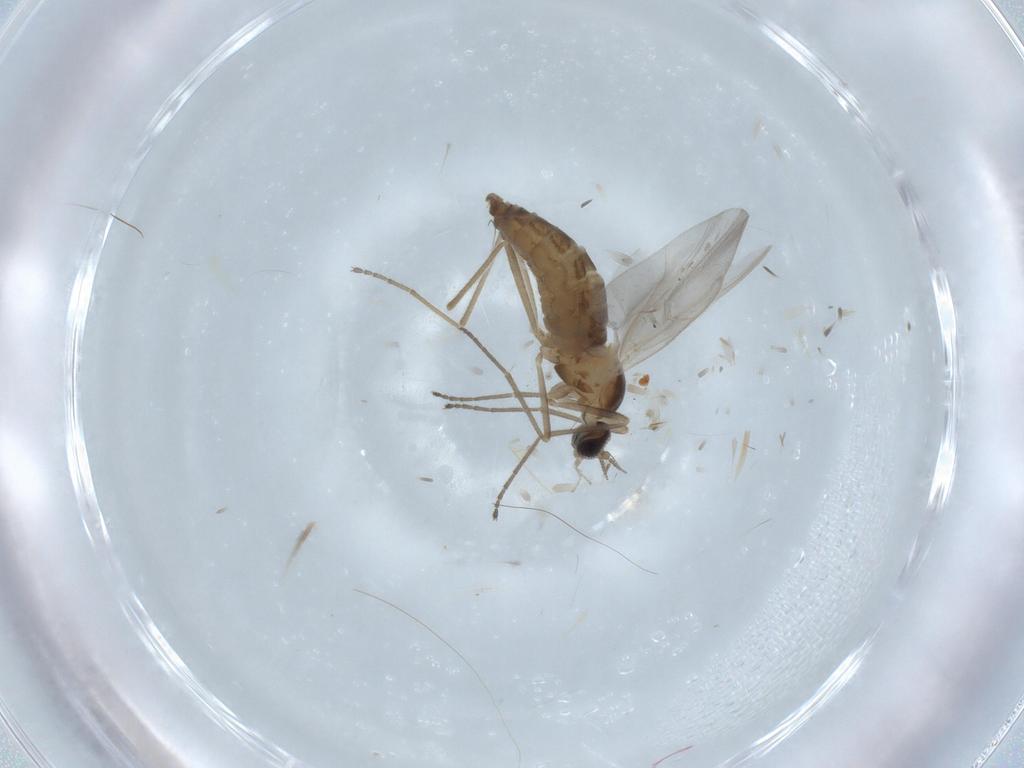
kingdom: Animalia
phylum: Arthropoda
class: Insecta
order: Diptera
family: Cecidomyiidae
